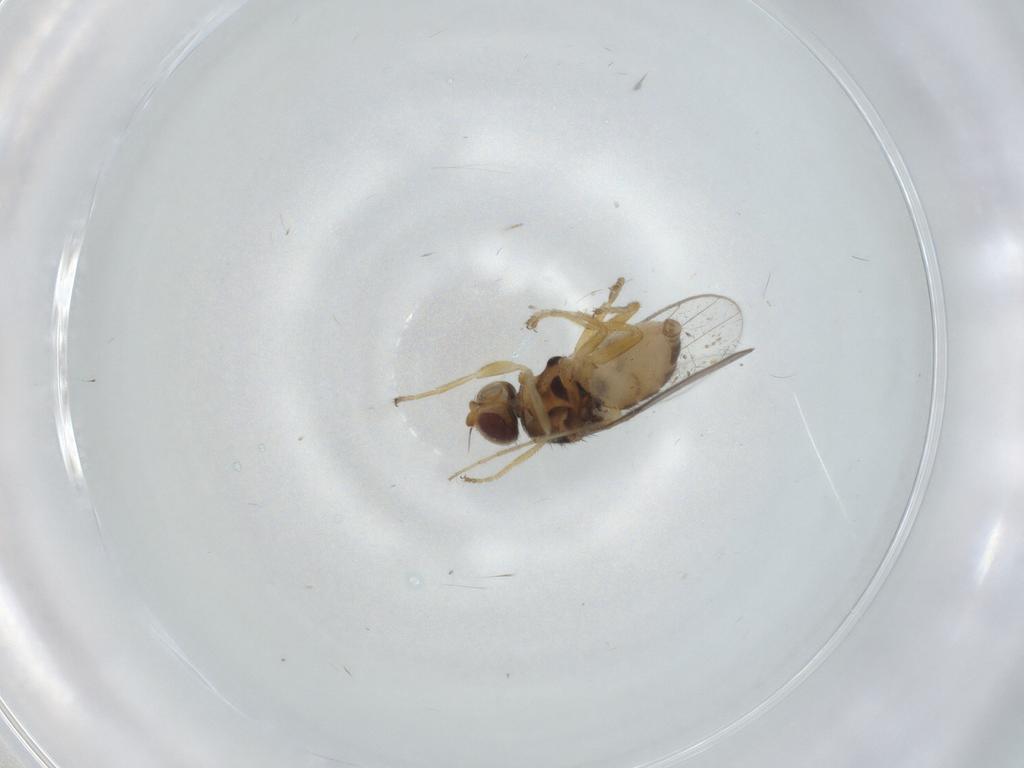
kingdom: Animalia
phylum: Arthropoda
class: Insecta
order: Diptera
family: Chloropidae
